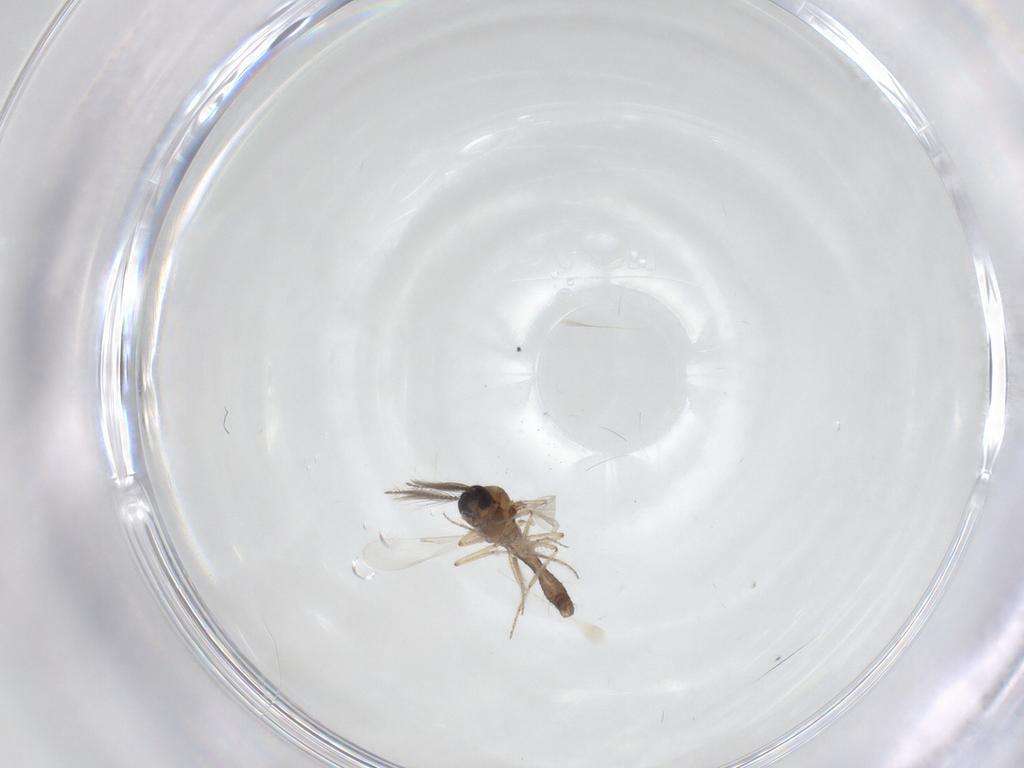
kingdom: Animalia
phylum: Arthropoda
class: Insecta
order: Diptera
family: Ceratopogonidae
